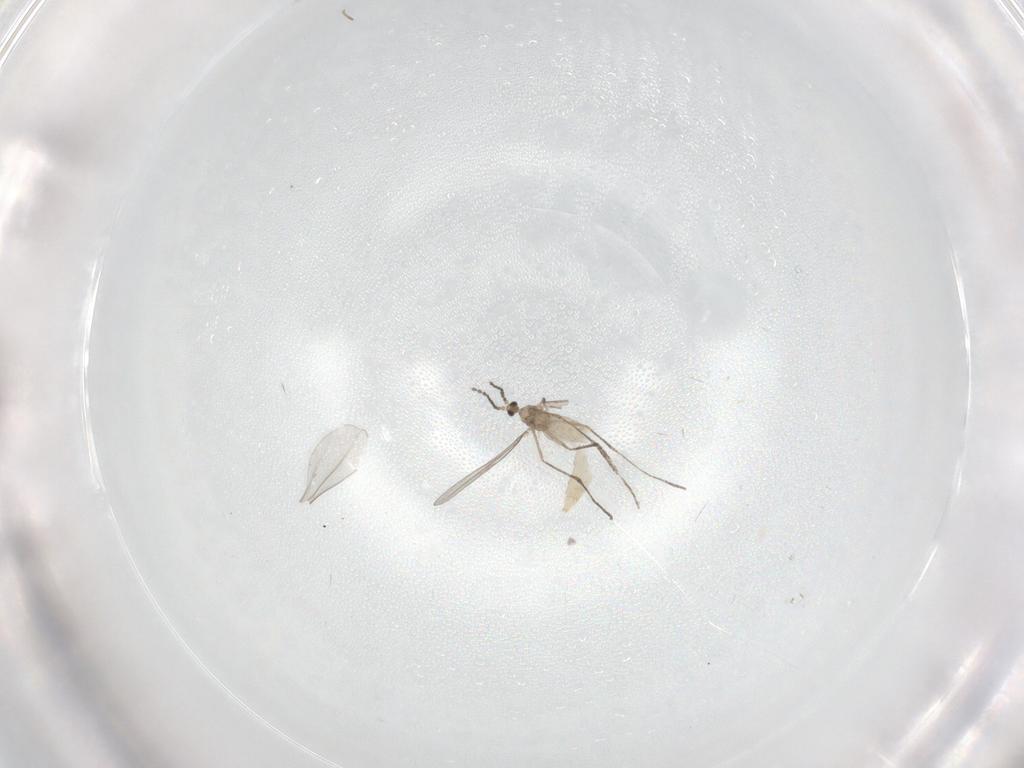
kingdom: Animalia
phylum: Arthropoda
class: Insecta
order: Diptera
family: Cecidomyiidae
